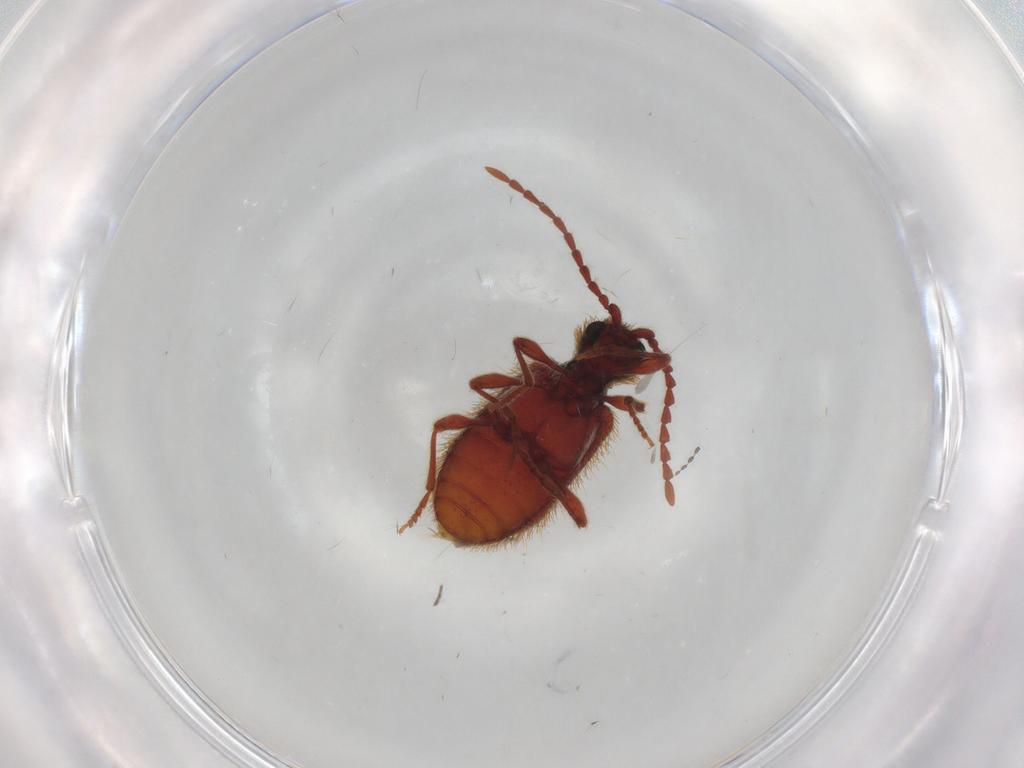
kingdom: Animalia
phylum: Arthropoda
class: Insecta
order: Coleoptera
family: Ptinidae
